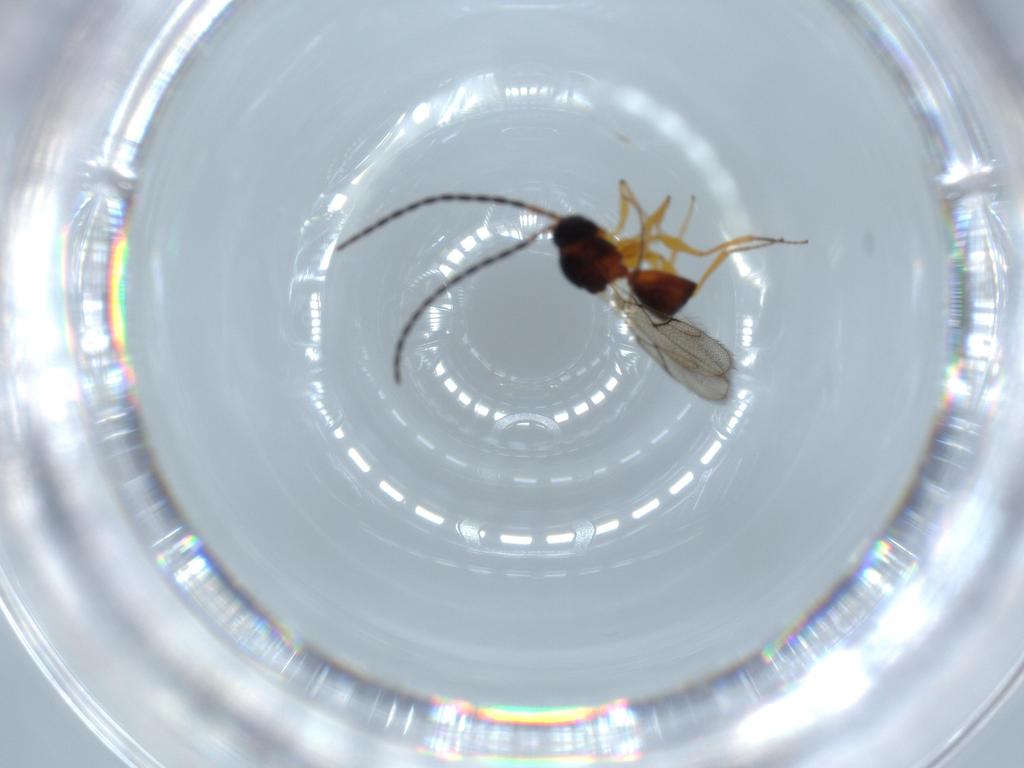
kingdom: Animalia
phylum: Arthropoda
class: Insecta
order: Hymenoptera
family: Figitidae
